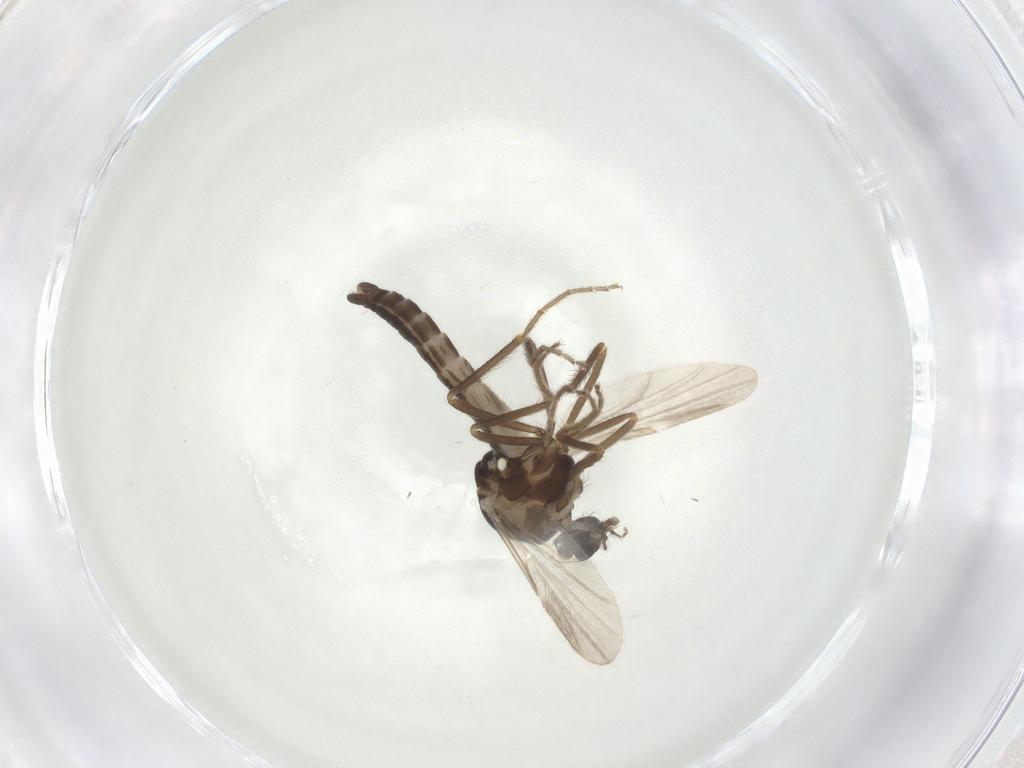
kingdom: Animalia
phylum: Arthropoda
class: Insecta
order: Diptera
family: Ceratopogonidae
